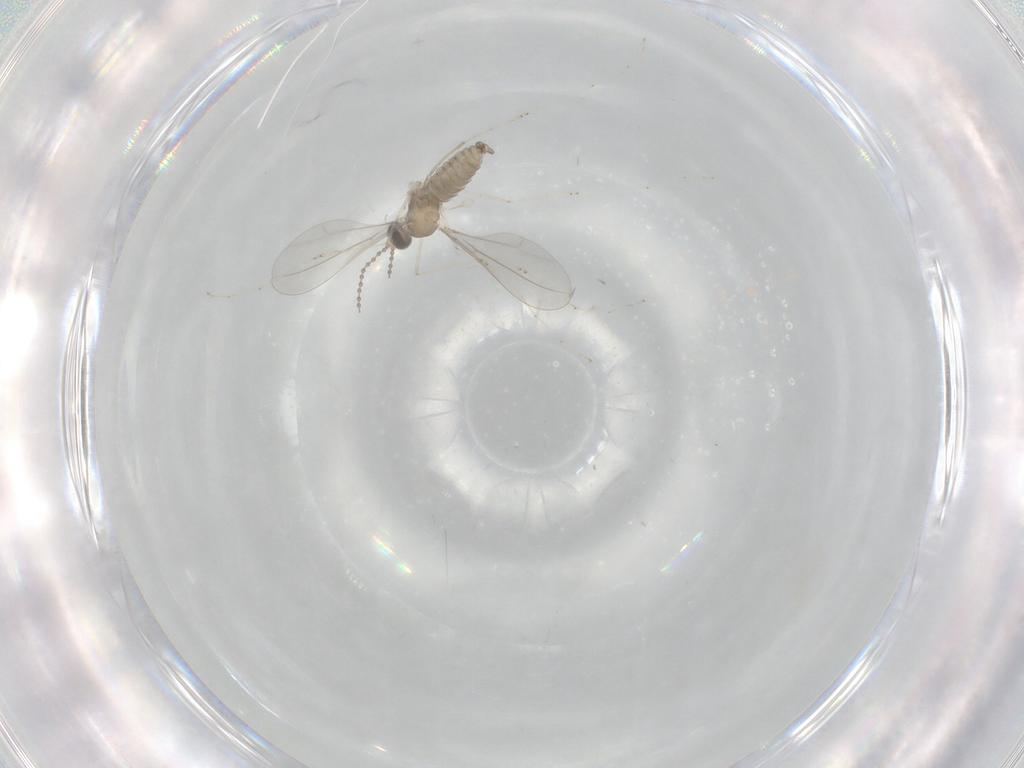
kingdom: Animalia
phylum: Arthropoda
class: Insecta
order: Diptera
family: Cecidomyiidae
